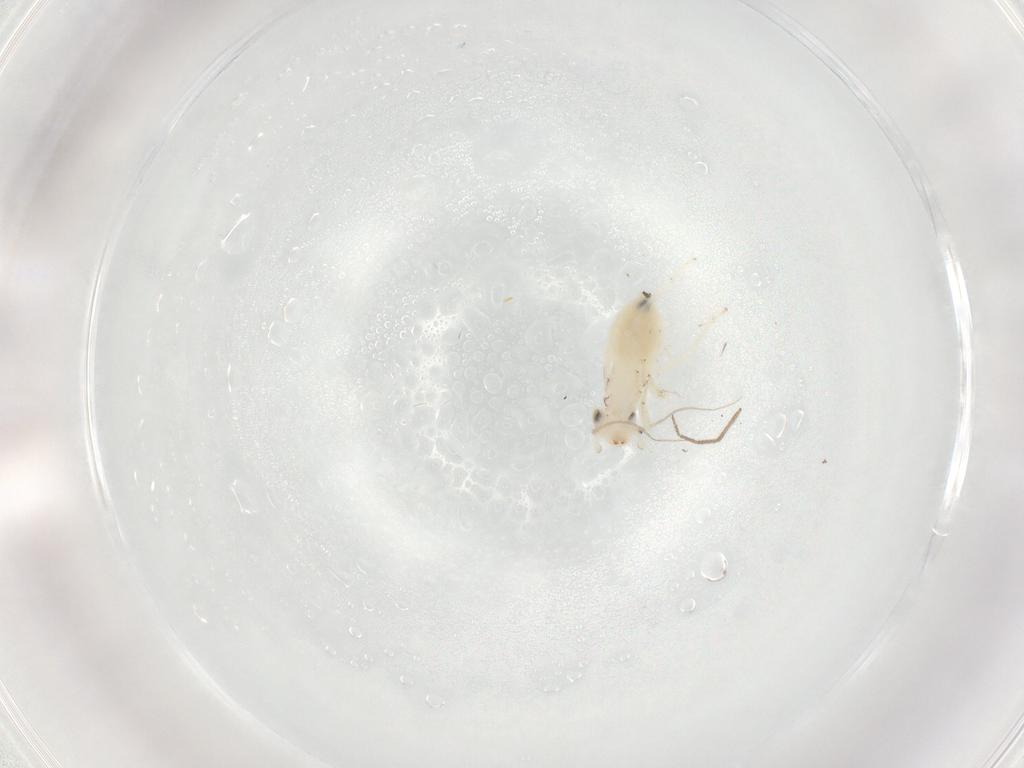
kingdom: Animalia
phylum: Arthropoda
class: Insecta
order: Psocodea
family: Lepidopsocidae
